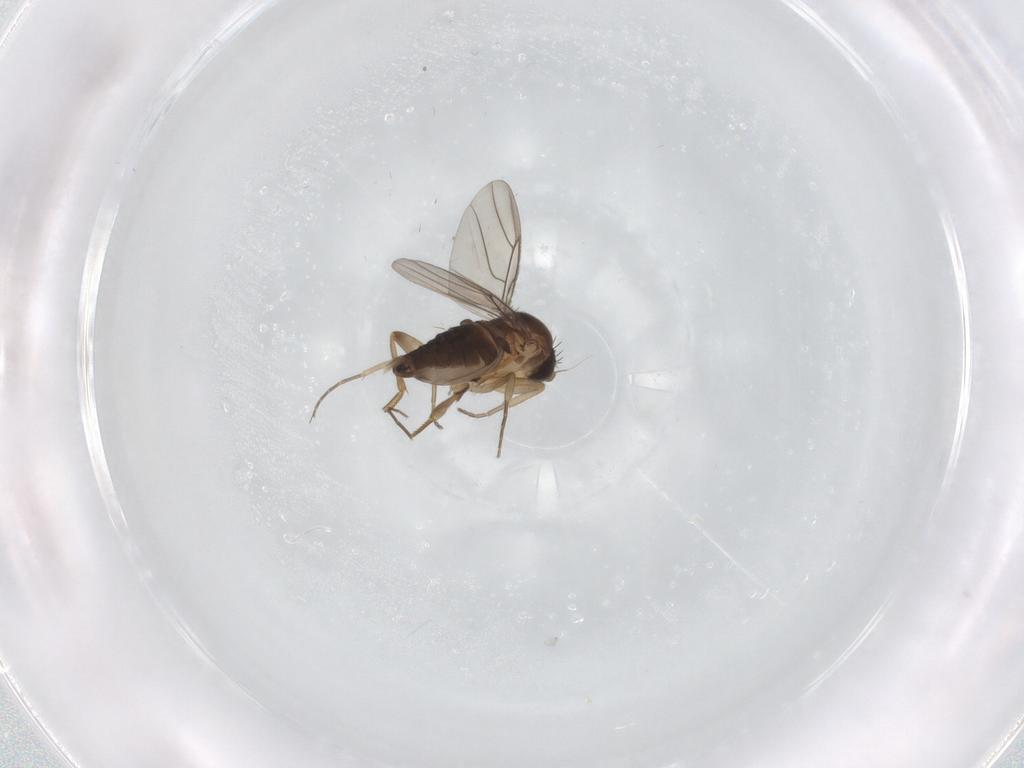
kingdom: Animalia
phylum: Arthropoda
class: Insecta
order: Diptera
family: Phoridae
